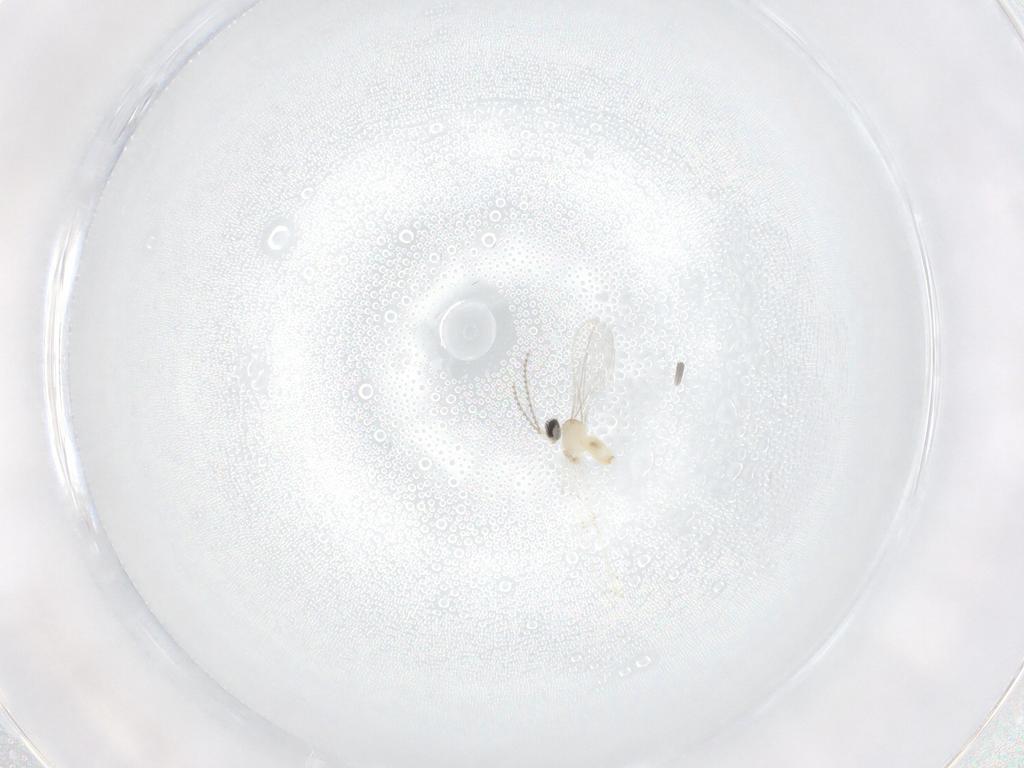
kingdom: Animalia
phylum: Arthropoda
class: Insecta
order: Diptera
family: Cecidomyiidae
